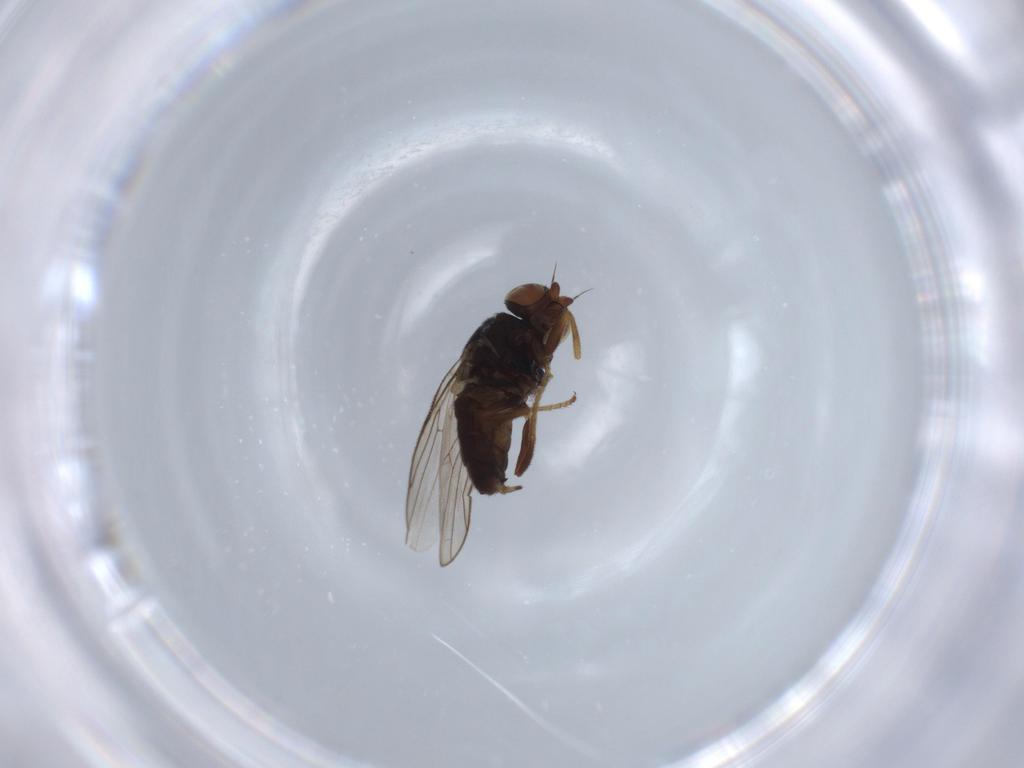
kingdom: Animalia
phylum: Arthropoda
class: Insecta
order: Diptera
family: Chloropidae
